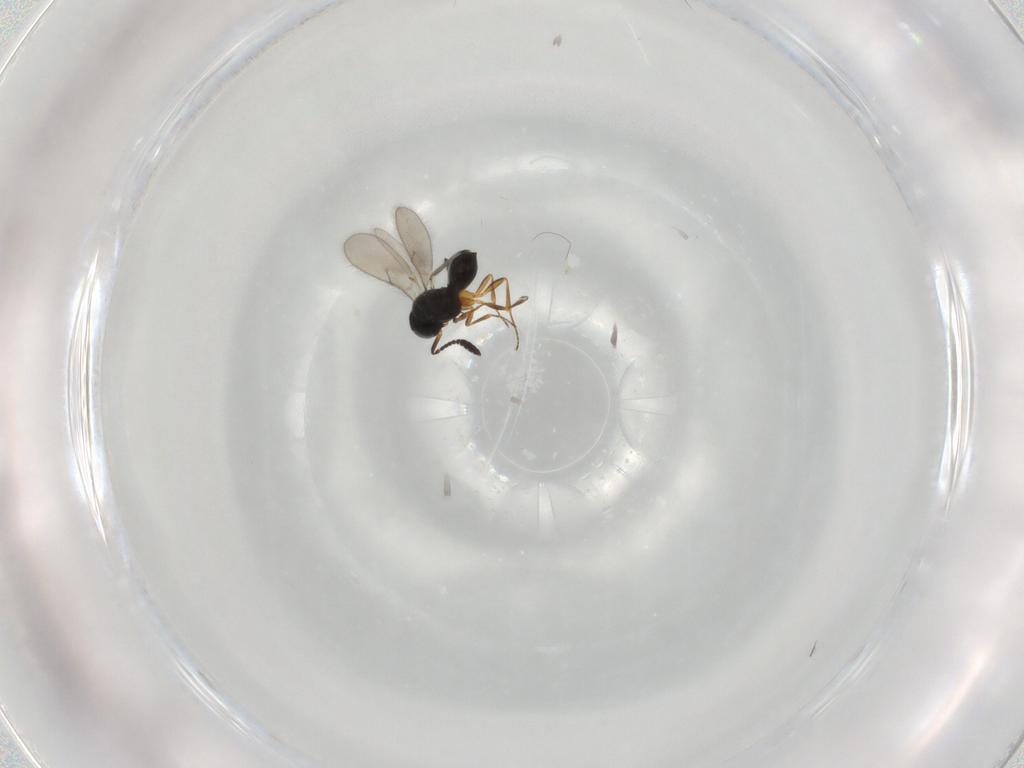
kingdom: Animalia
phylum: Arthropoda
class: Insecta
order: Hymenoptera
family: Scelionidae
